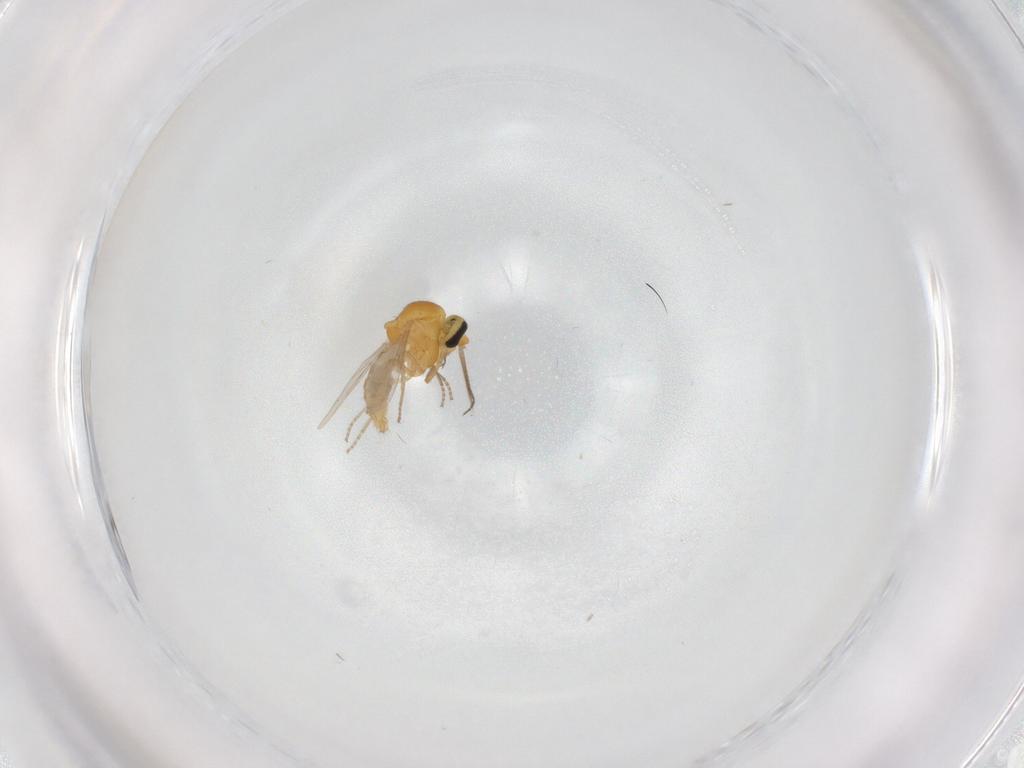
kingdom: Animalia
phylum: Arthropoda
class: Insecta
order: Diptera
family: Ceratopogonidae
